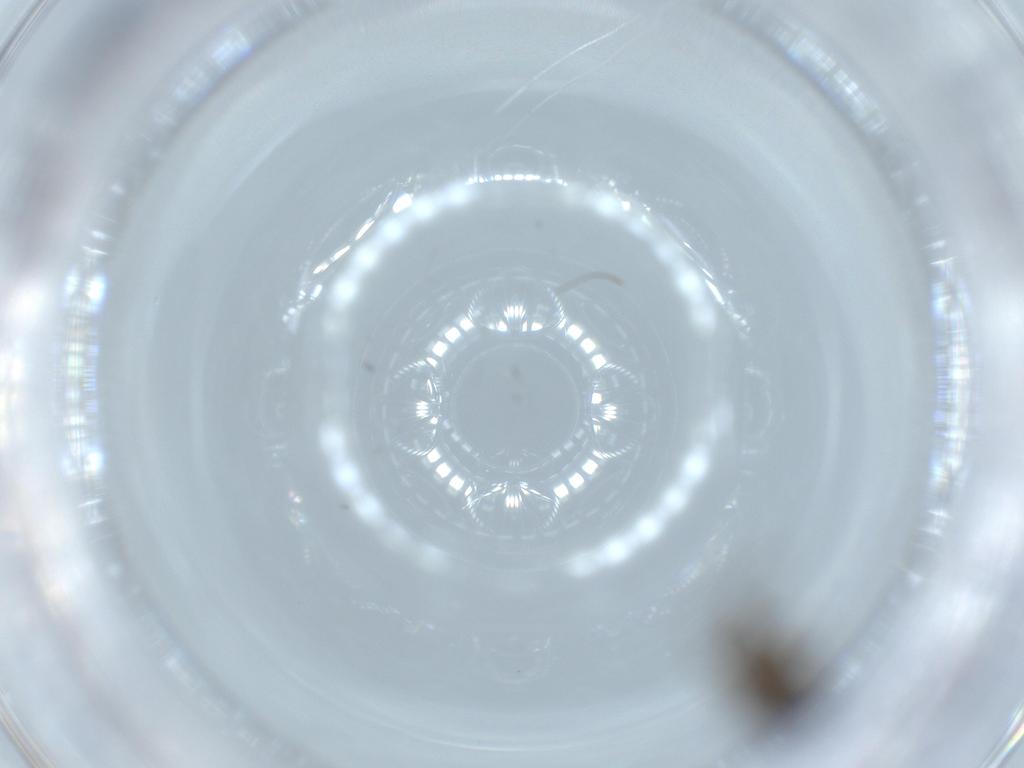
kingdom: Animalia
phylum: Arthropoda
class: Insecta
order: Diptera
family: Sphaeroceridae
